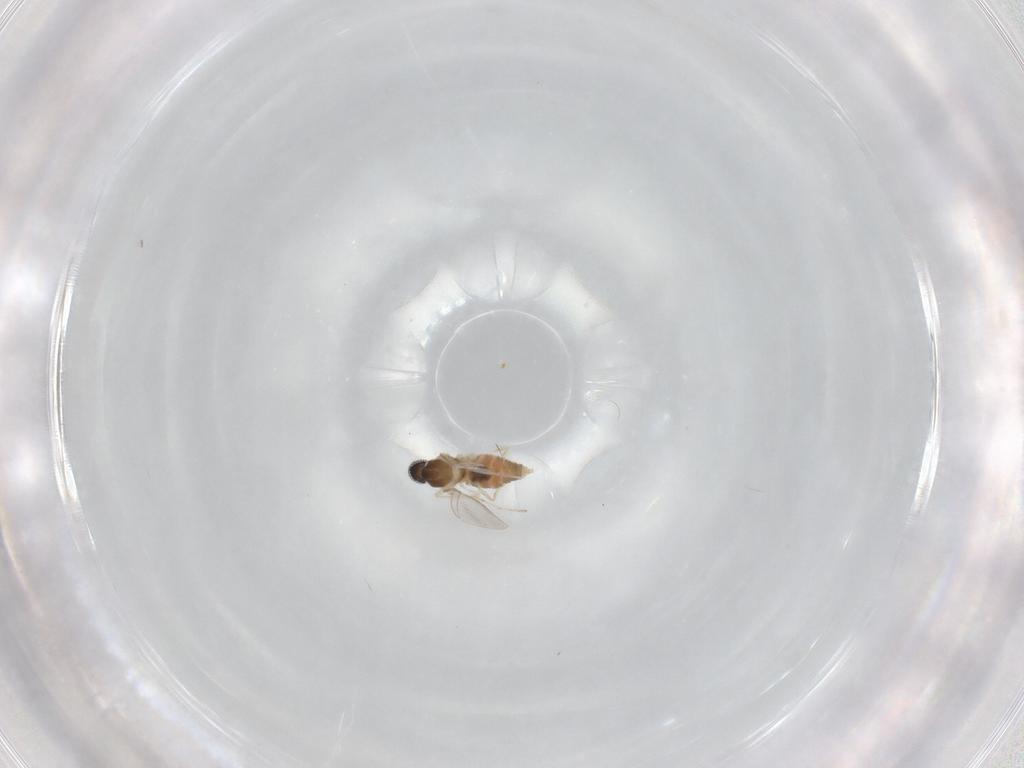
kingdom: Animalia
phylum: Arthropoda
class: Insecta
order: Diptera
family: Cecidomyiidae
